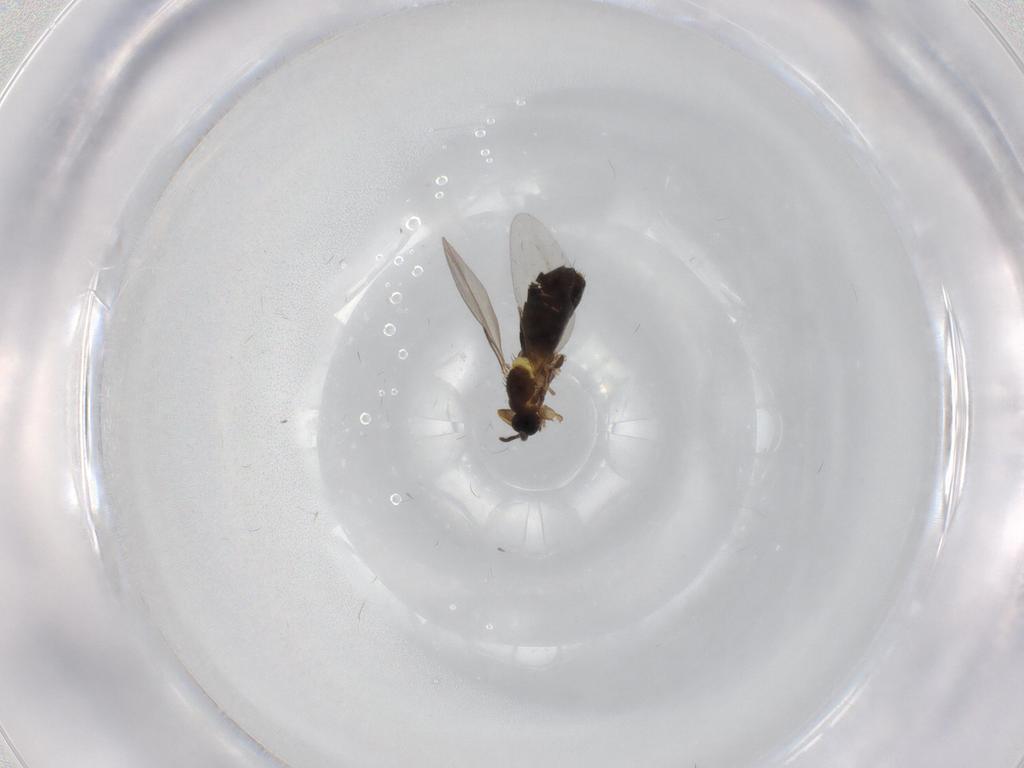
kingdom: Animalia
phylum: Arthropoda
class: Insecta
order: Diptera
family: Scatopsidae
